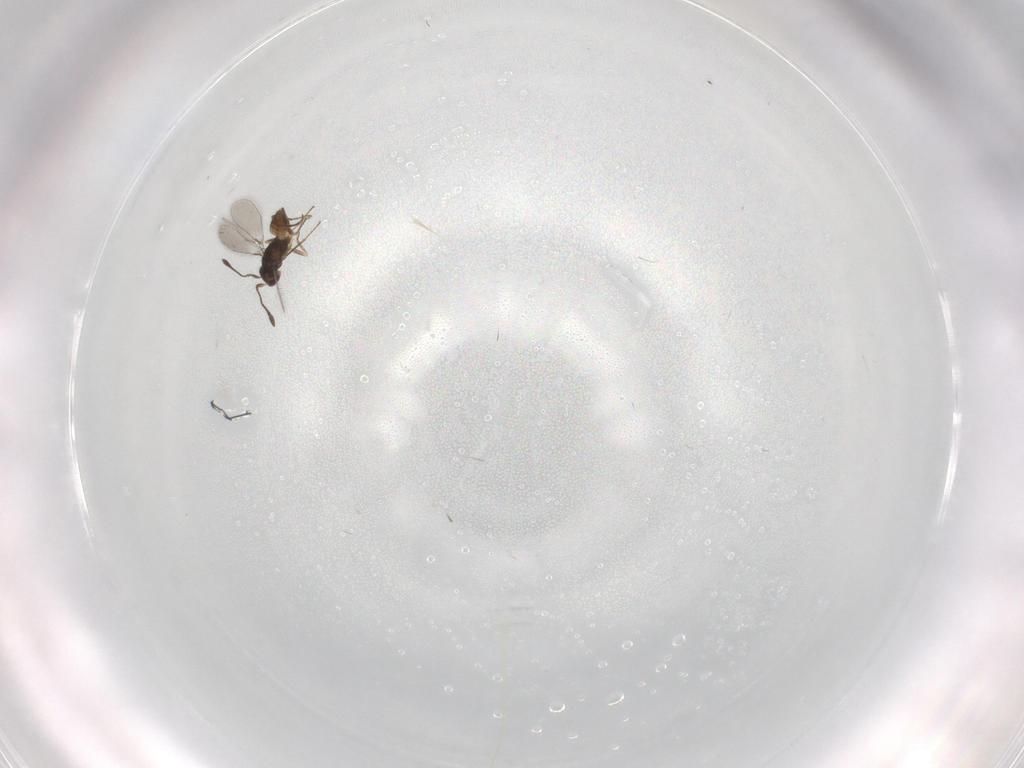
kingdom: Animalia
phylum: Arthropoda
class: Insecta
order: Hymenoptera
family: Mymaridae
